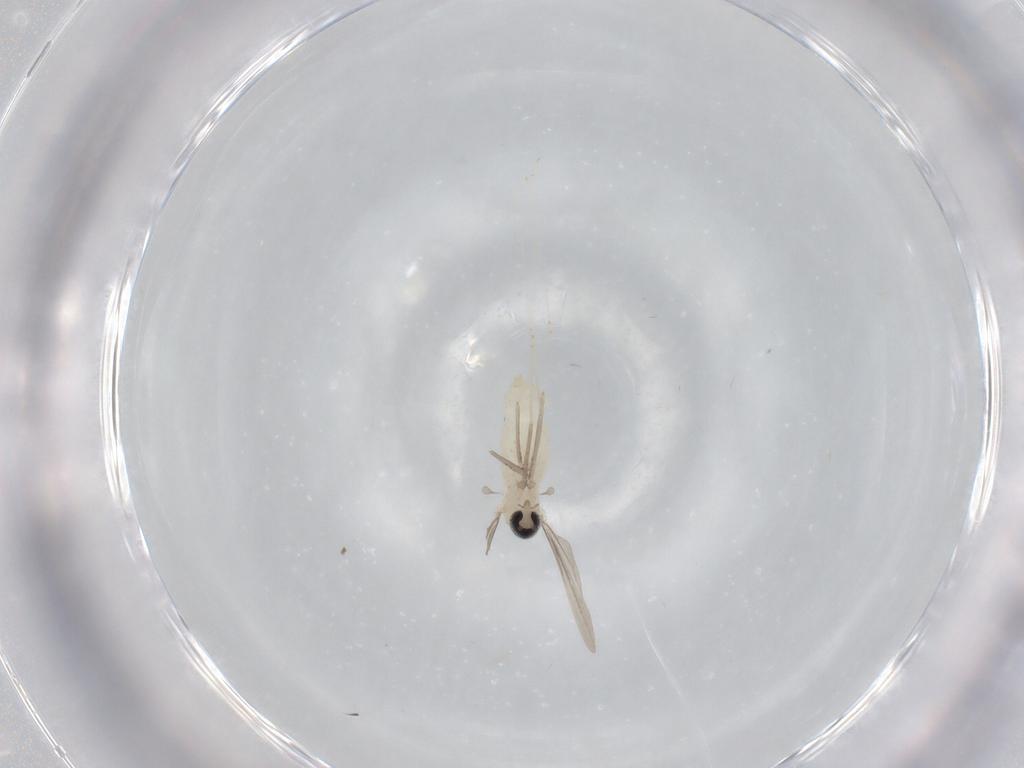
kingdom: Animalia
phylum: Arthropoda
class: Insecta
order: Diptera
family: Cecidomyiidae
